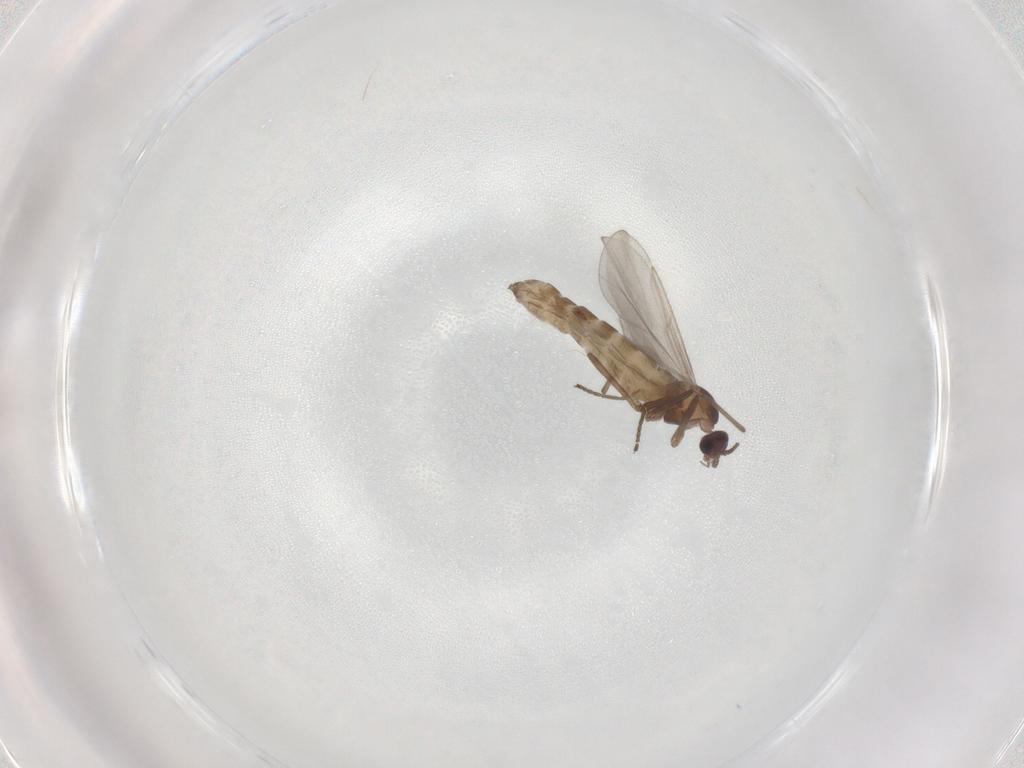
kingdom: Animalia
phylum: Arthropoda
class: Insecta
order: Diptera
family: Cecidomyiidae
